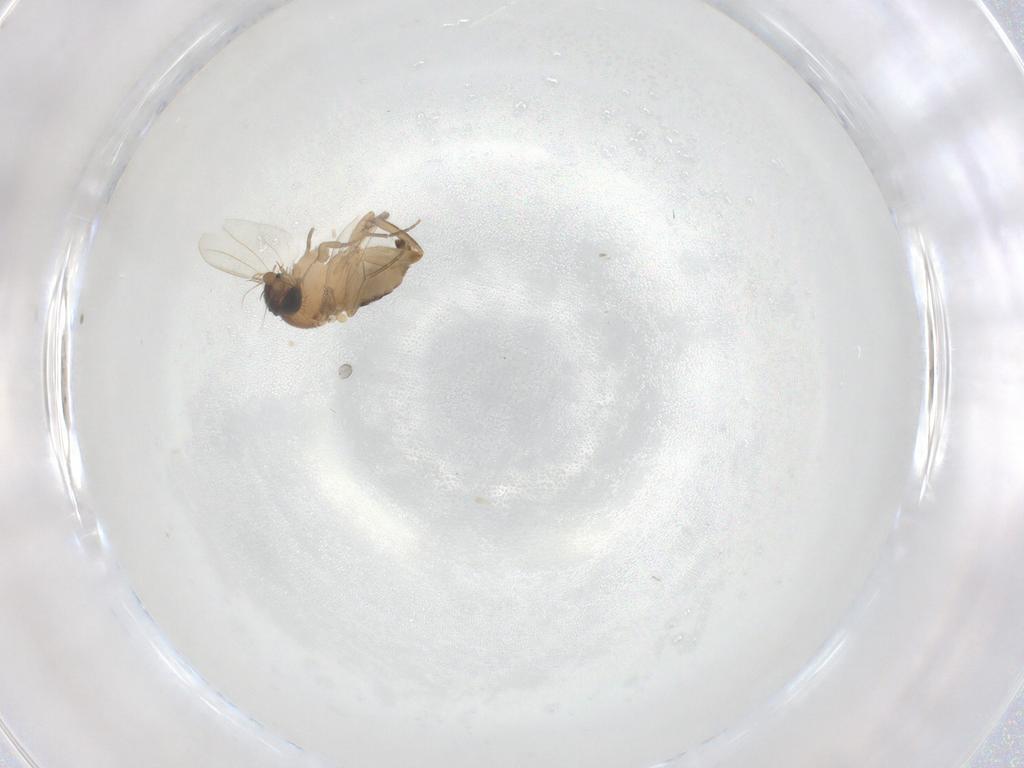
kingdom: Animalia
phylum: Arthropoda
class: Insecta
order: Diptera
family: Phoridae
